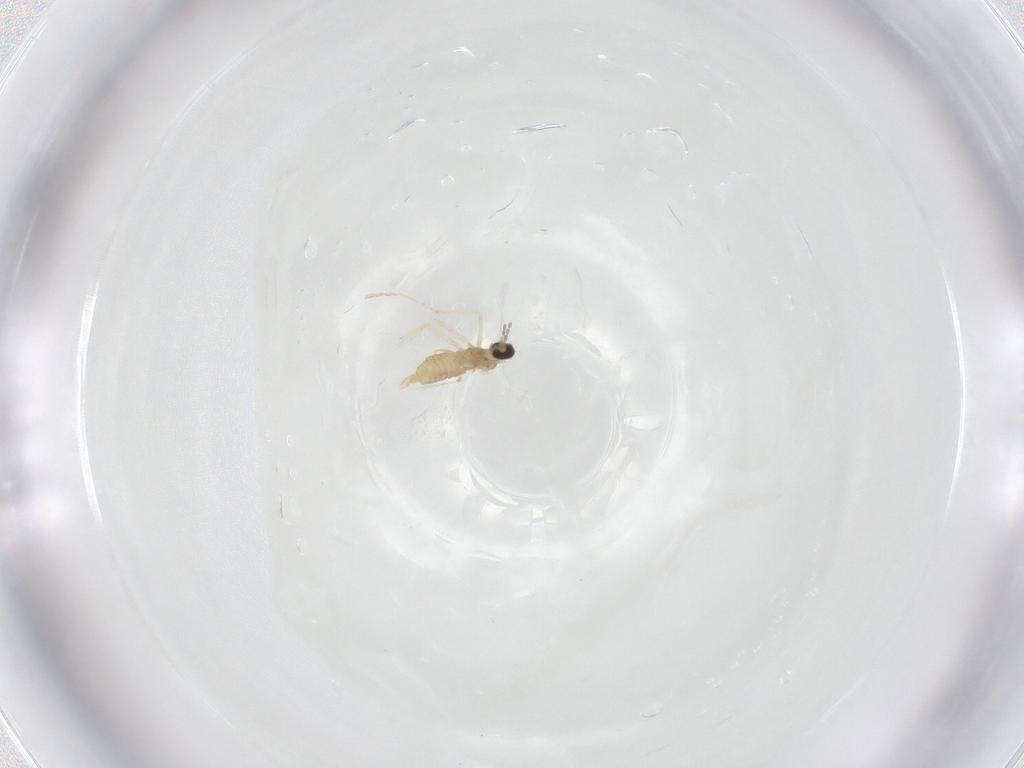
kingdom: Animalia
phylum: Arthropoda
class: Insecta
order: Diptera
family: Cecidomyiidae
